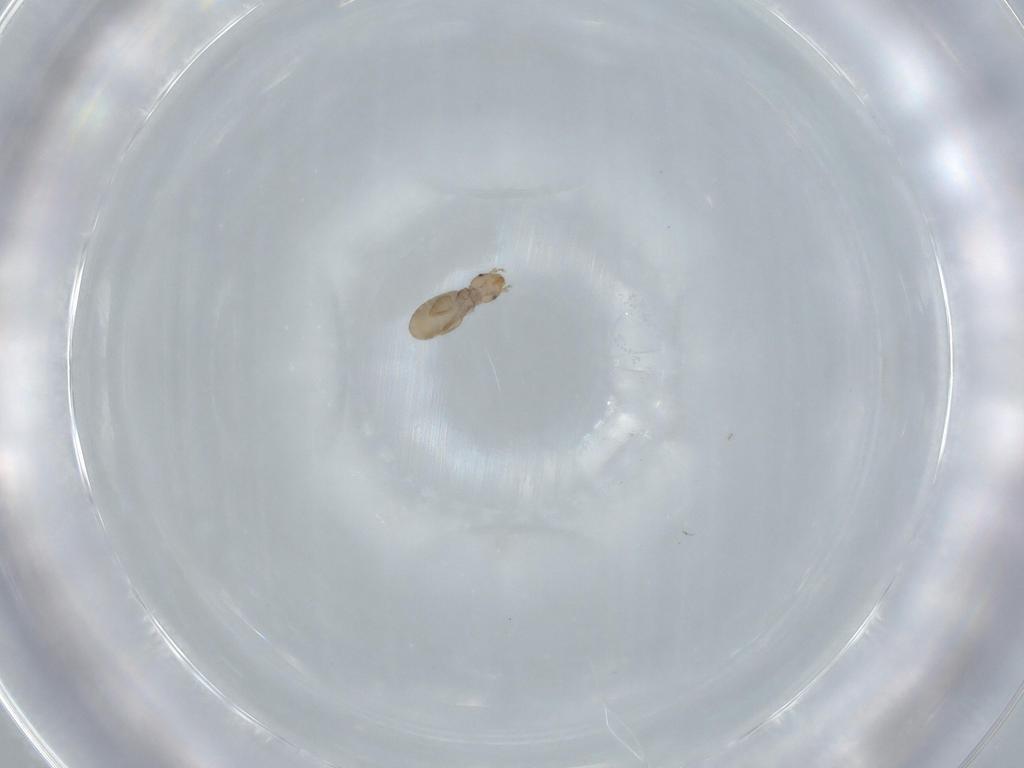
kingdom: Animalia
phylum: Arthropoda
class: Insecta
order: Psocodea
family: Liposcelididae
